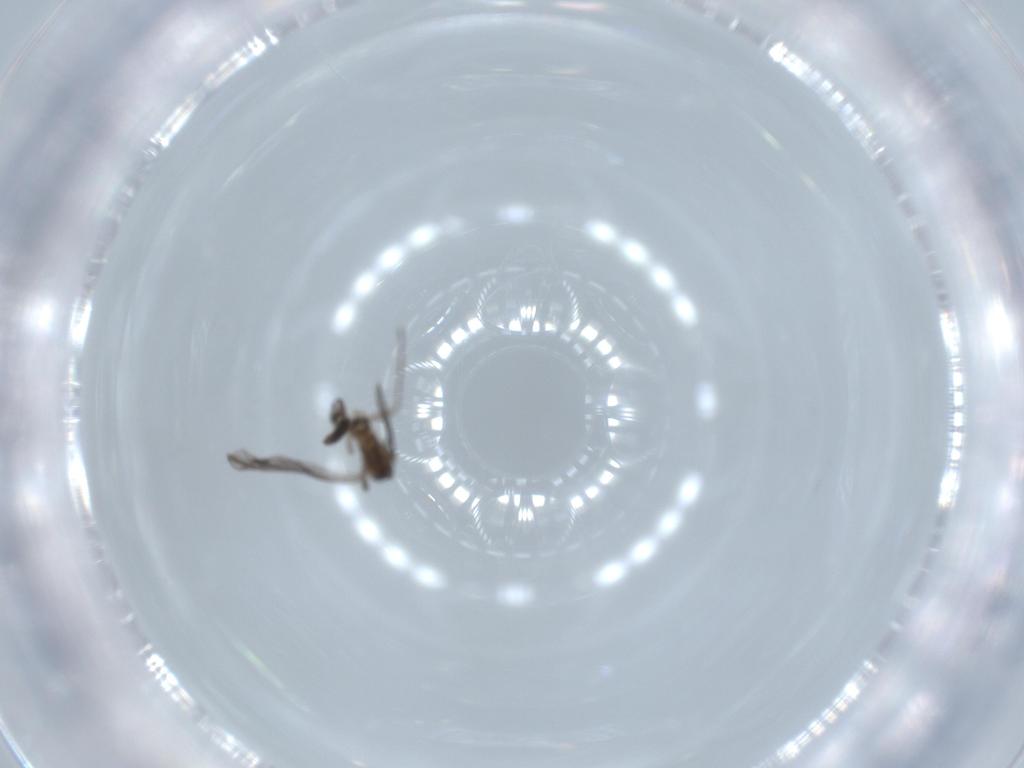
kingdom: Animalia
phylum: Arthropoda
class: Insecta
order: Diptera
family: Sciaridae
